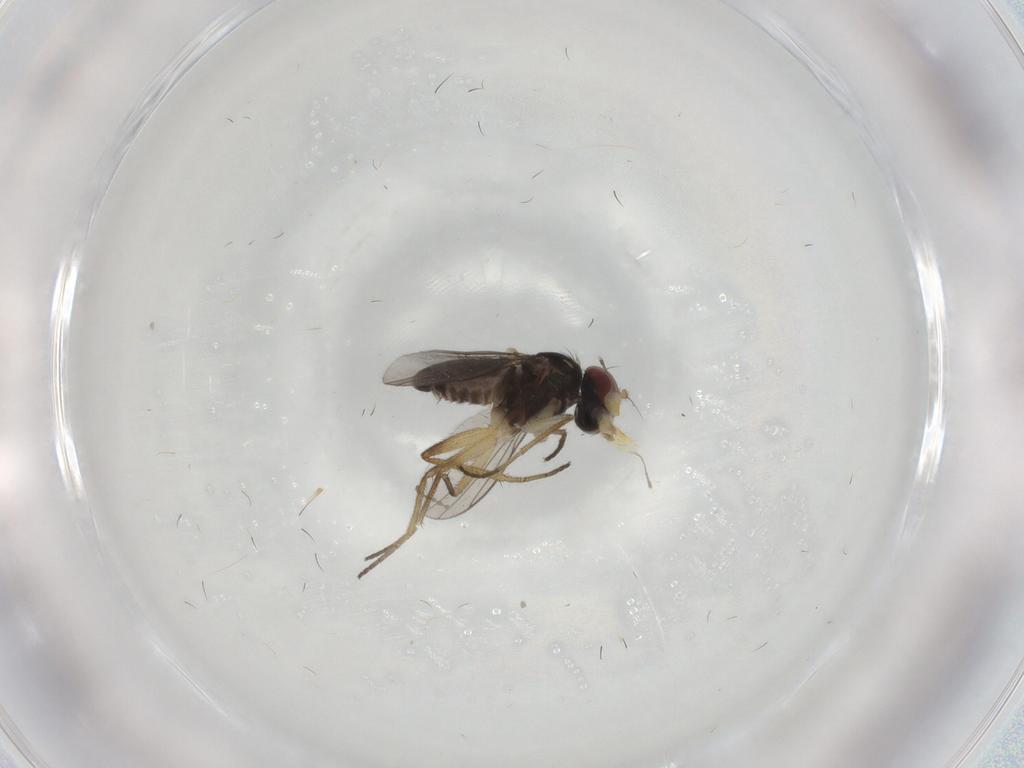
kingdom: Animalia
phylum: Arthropoda
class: Insecta
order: Diptera
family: Dolichopodidae
